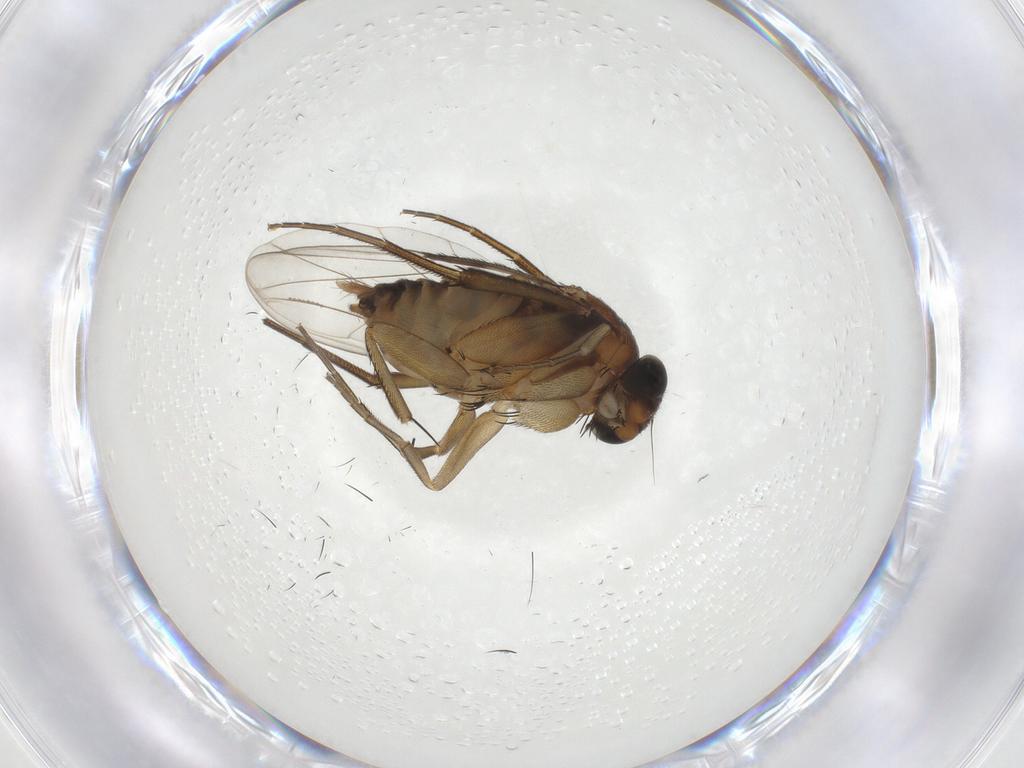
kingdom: Animalia
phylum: Arthropoda
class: Insecta
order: Diptera
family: Phoridae
